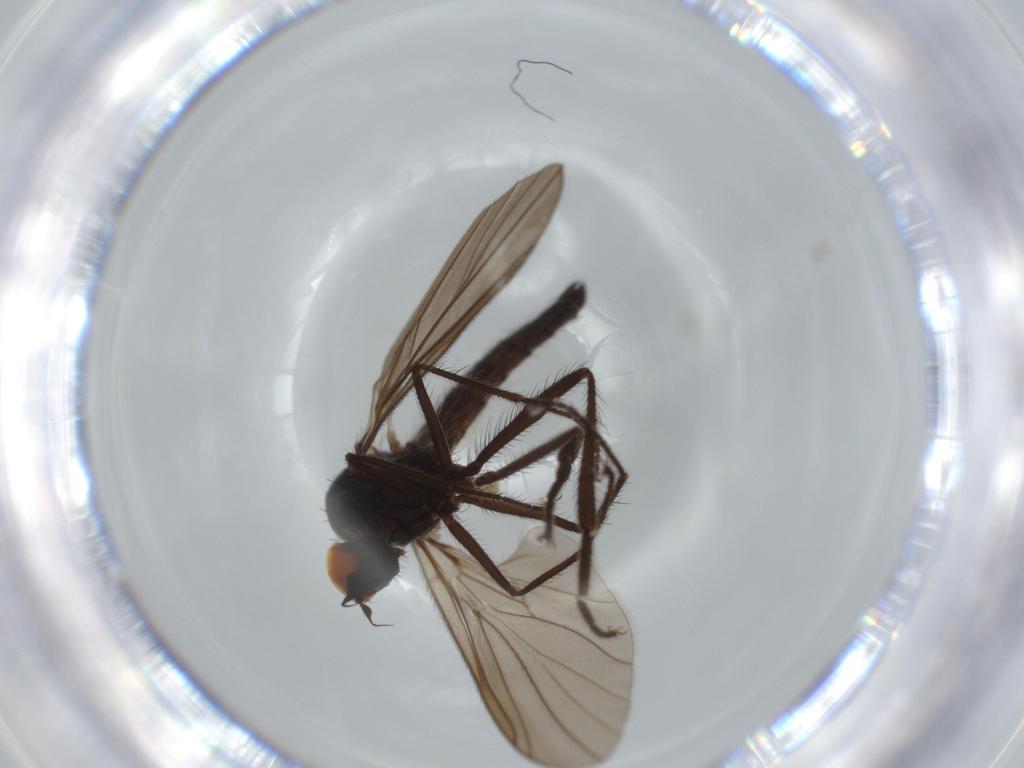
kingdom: Animalia
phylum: Arthropoda
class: Insecta
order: Diptera
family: Hybotidae
